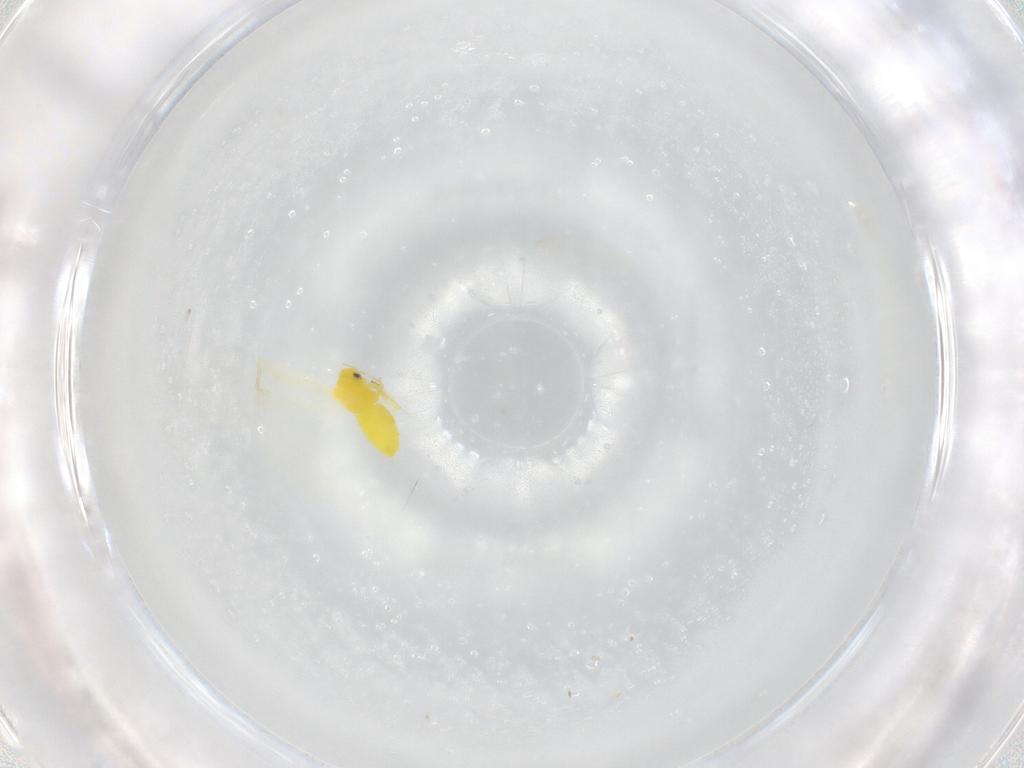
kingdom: Animalia
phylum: Arthropoda
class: Insecta
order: Hemiptera
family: Aleyrodidae
